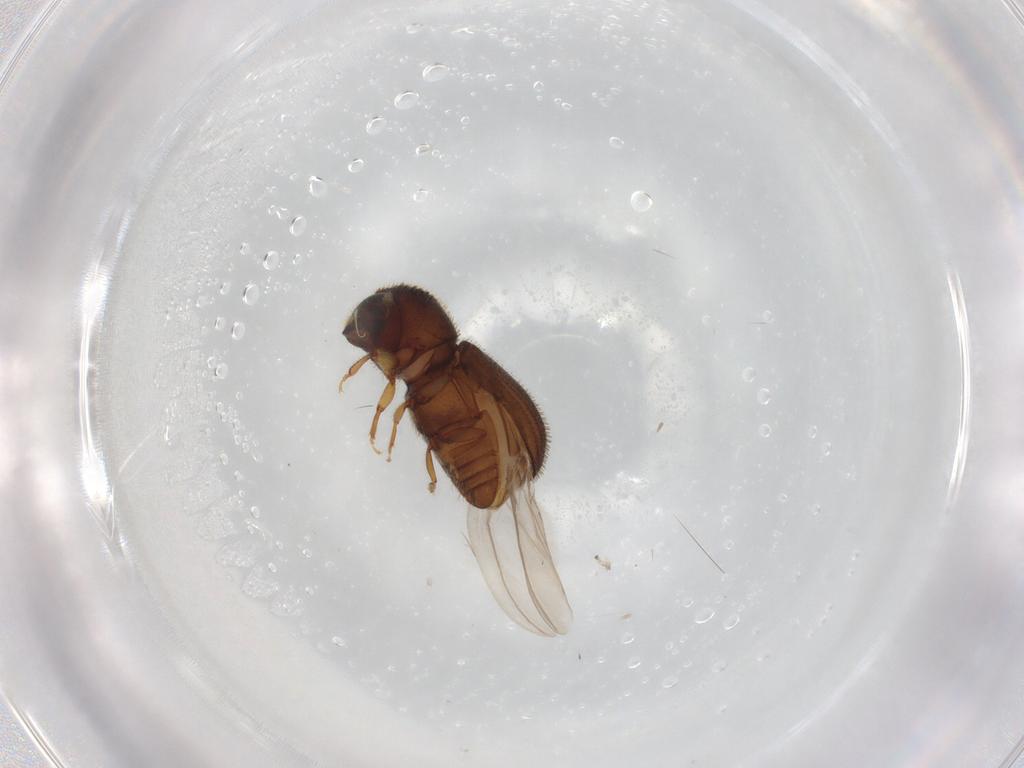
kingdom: Animalia
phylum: Arthropoda
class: Insecta
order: Coleoptera
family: Curculionidae
